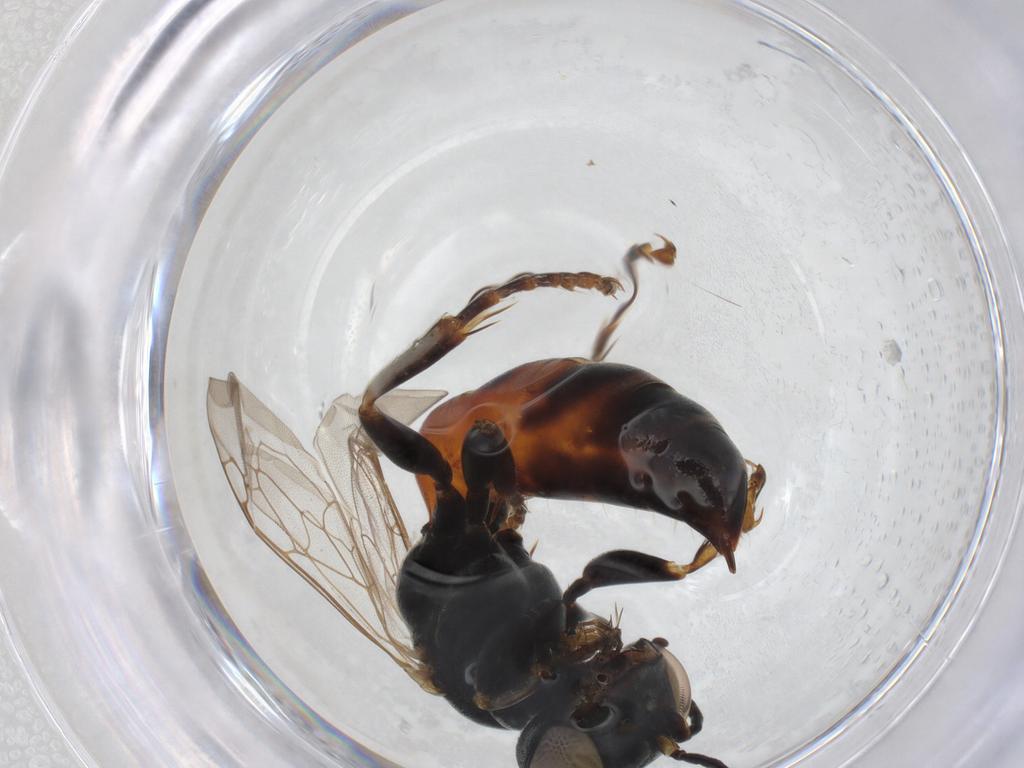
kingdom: Animalia
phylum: Arthropoda
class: Insecta
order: Hymenoptera
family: Crabronidae
